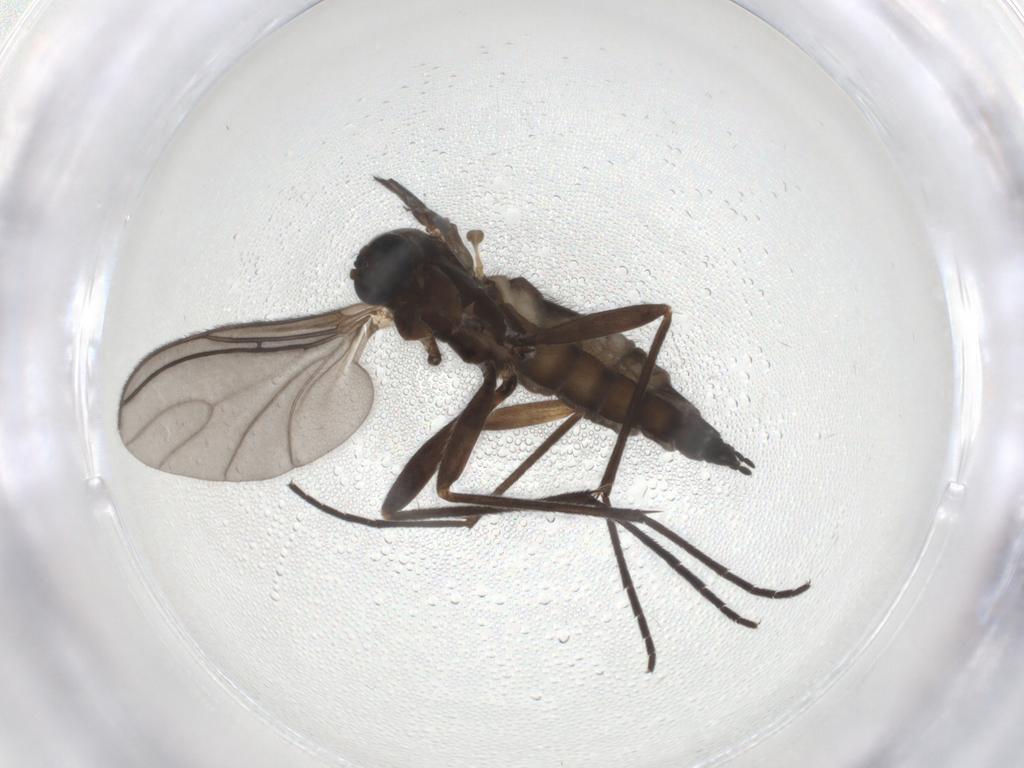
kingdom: Animalia
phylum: Arthropoda
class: Insecta
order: Diptera
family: Sciaridae
